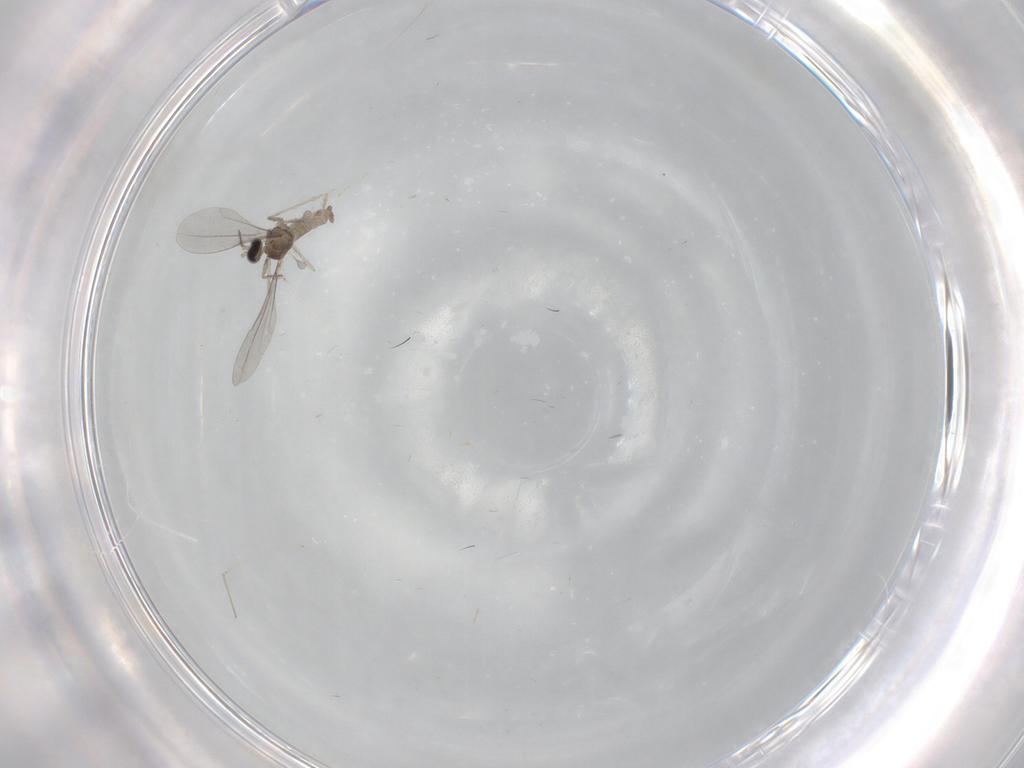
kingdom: Animalia
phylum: Arthropoda
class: Insecta
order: Diptera
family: Cecidomyiidae
